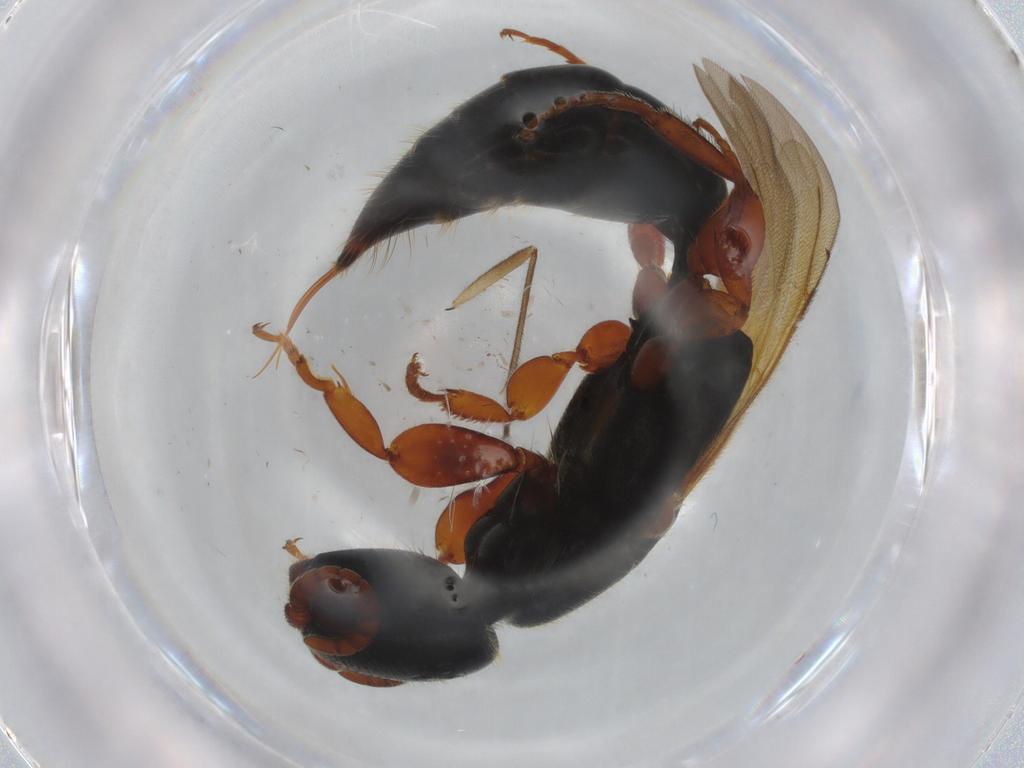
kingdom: Animalia
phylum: Arthropoda
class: Insecta
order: Hymenoptera
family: Bethylidae
